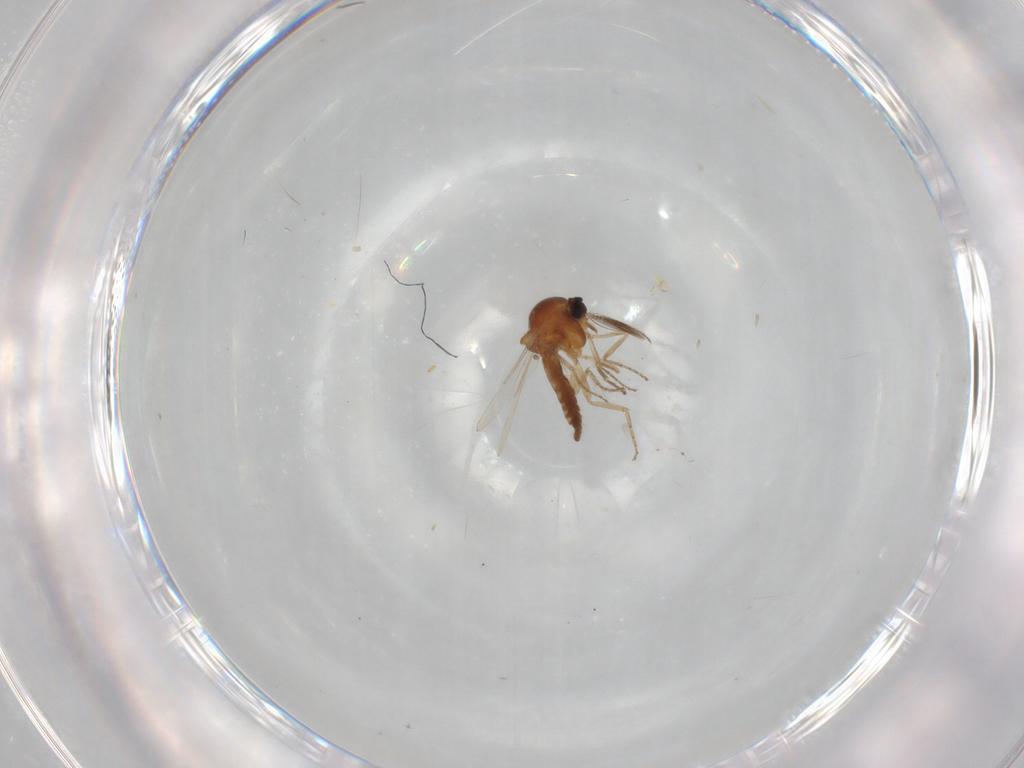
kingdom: Animalia
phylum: Arthropoda
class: Insecta
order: Diptera
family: Ceratopogonidae
